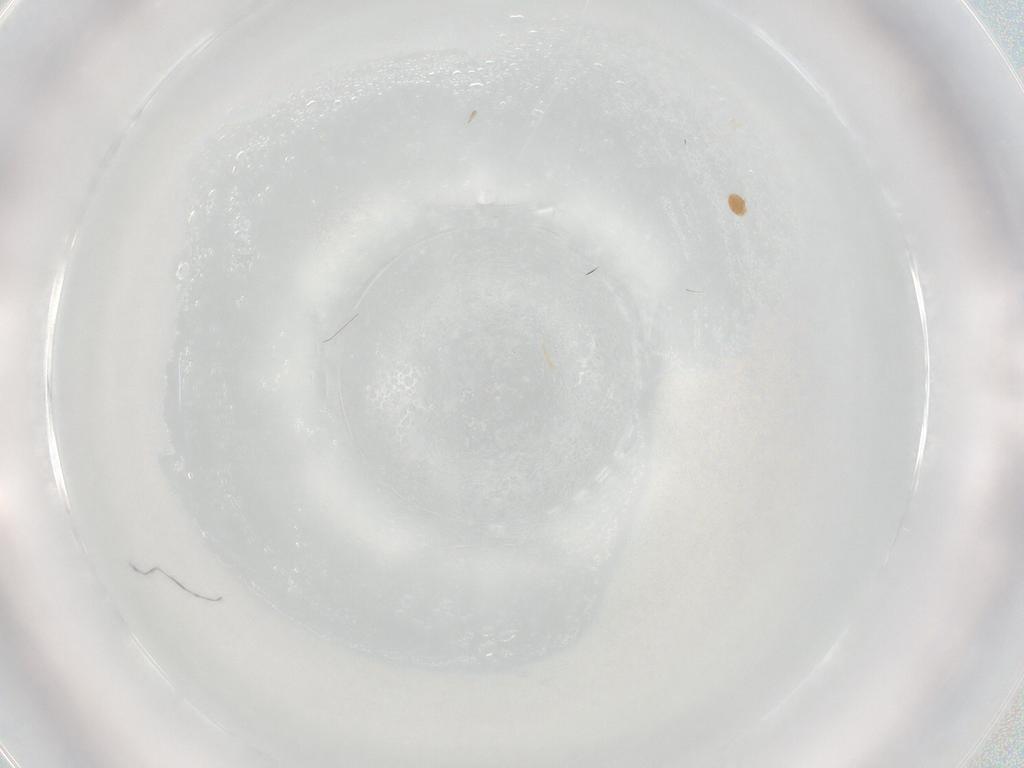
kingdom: Animalia
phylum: Arthropoda
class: Arachnida
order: Trombidiformes
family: Scutacaridae
